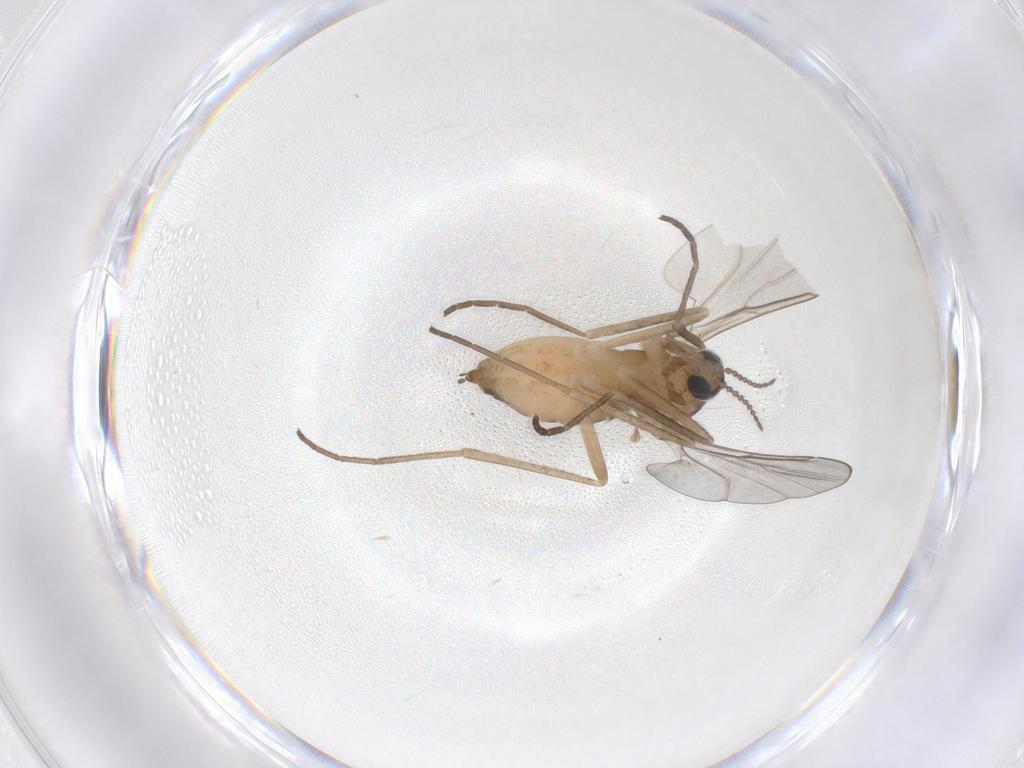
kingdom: Animalia
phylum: Arthropoda
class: Insecta
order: Diptera
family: Cecidomyiidae
